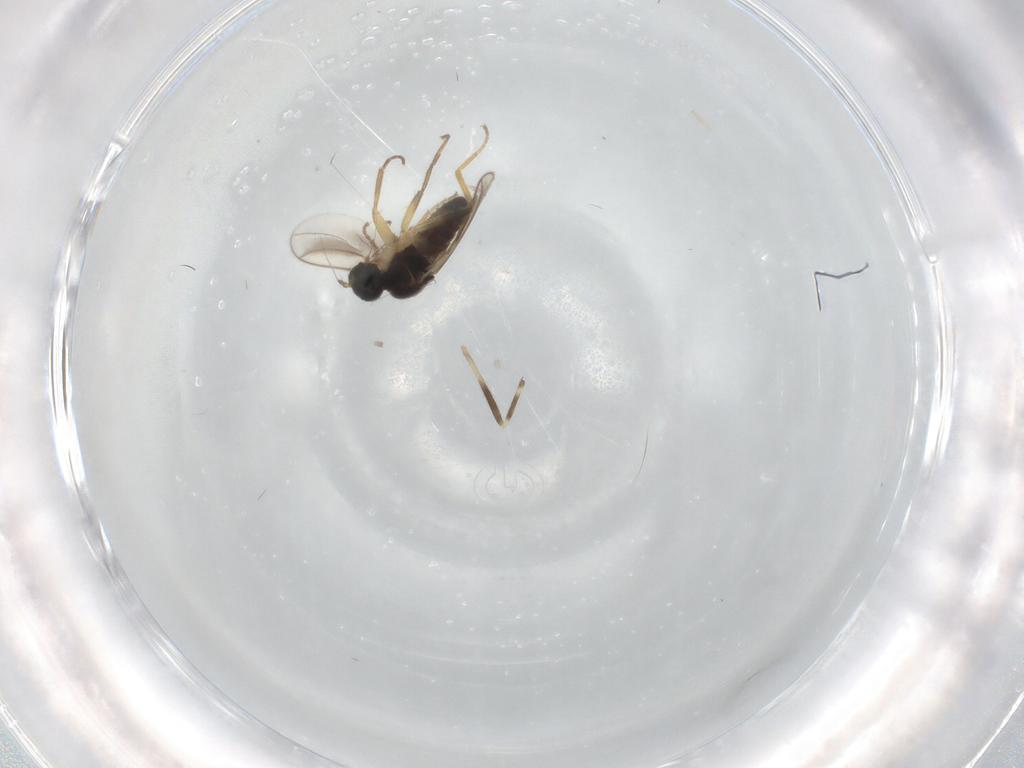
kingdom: Animalia
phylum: Arthropoda
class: Insecta
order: Diptera
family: Hybotidae
